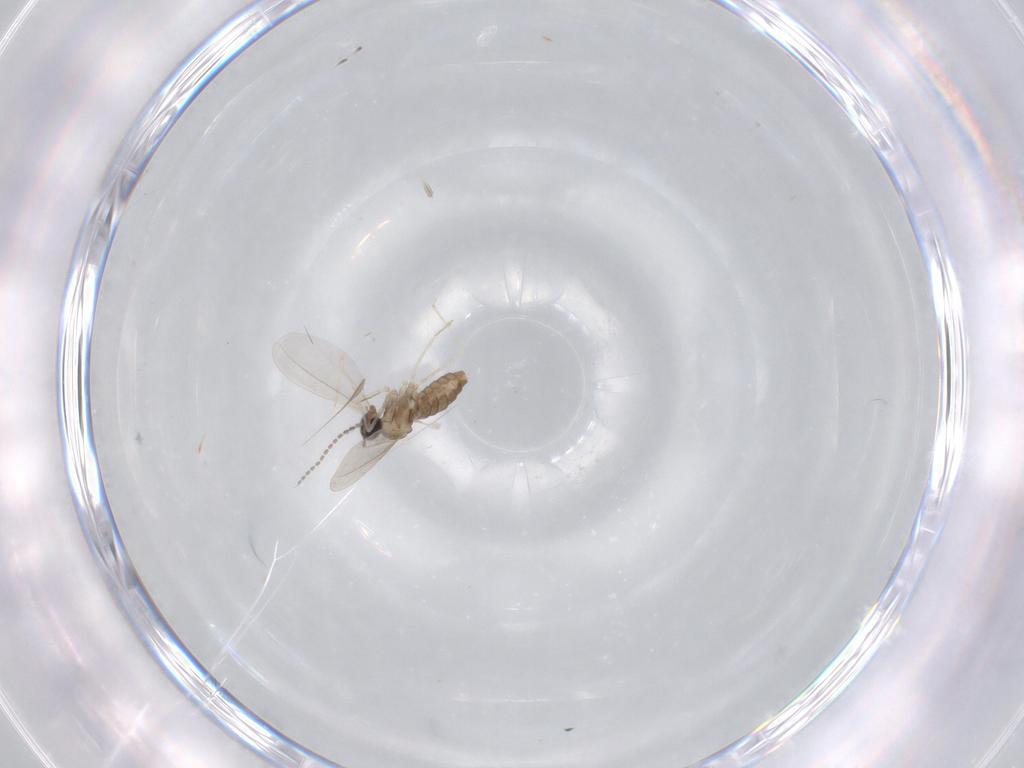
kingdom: Animalia
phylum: Arthropoda
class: Insecta
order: Diptera
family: Cecidomyiidae
